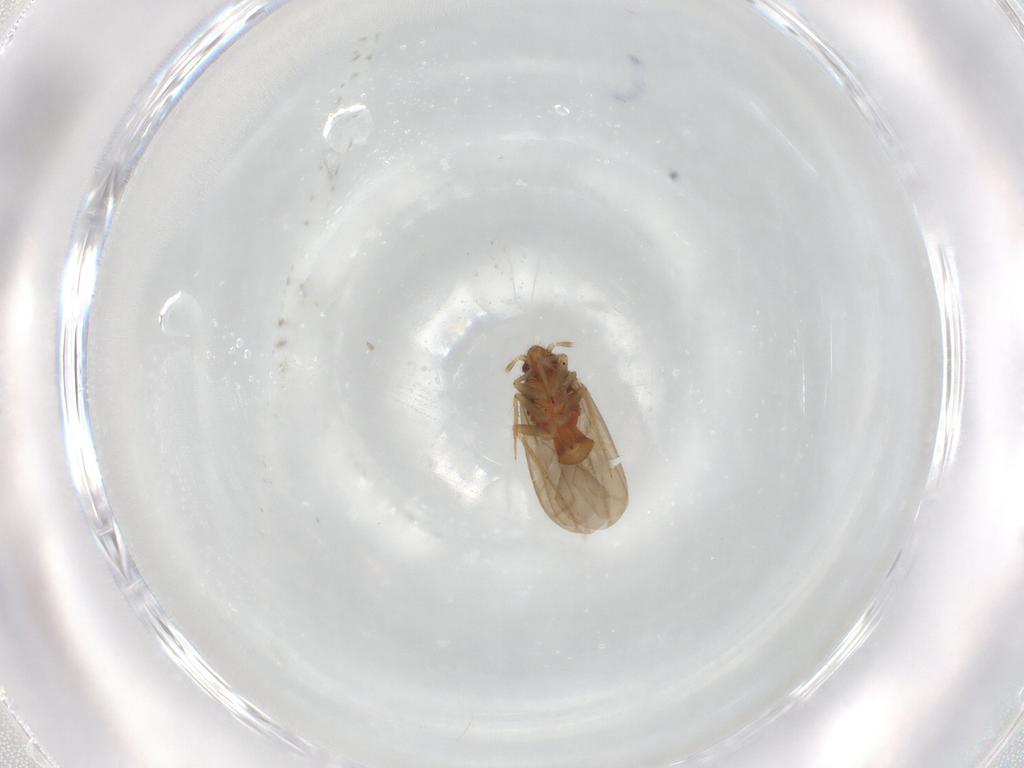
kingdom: Animalia
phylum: Arthropoda
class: Insecta
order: Hemiptera
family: Ceratocombidae
